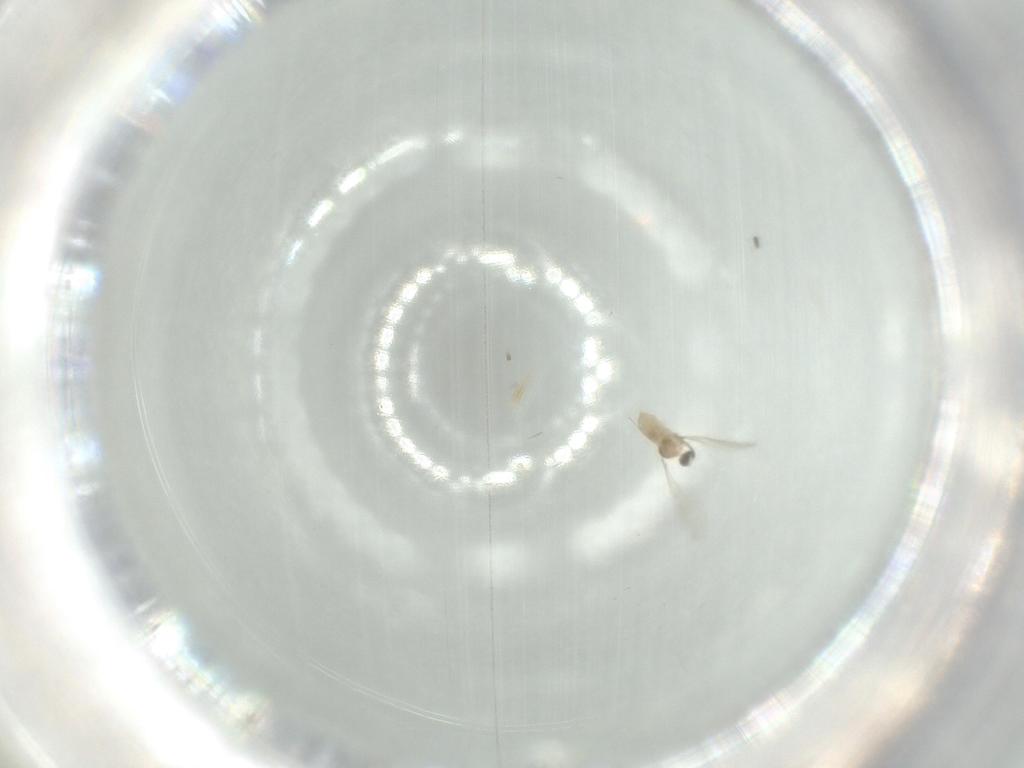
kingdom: Animalia
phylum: Arthropoda
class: Insecta
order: Diptera
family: Cecidomyiidae
